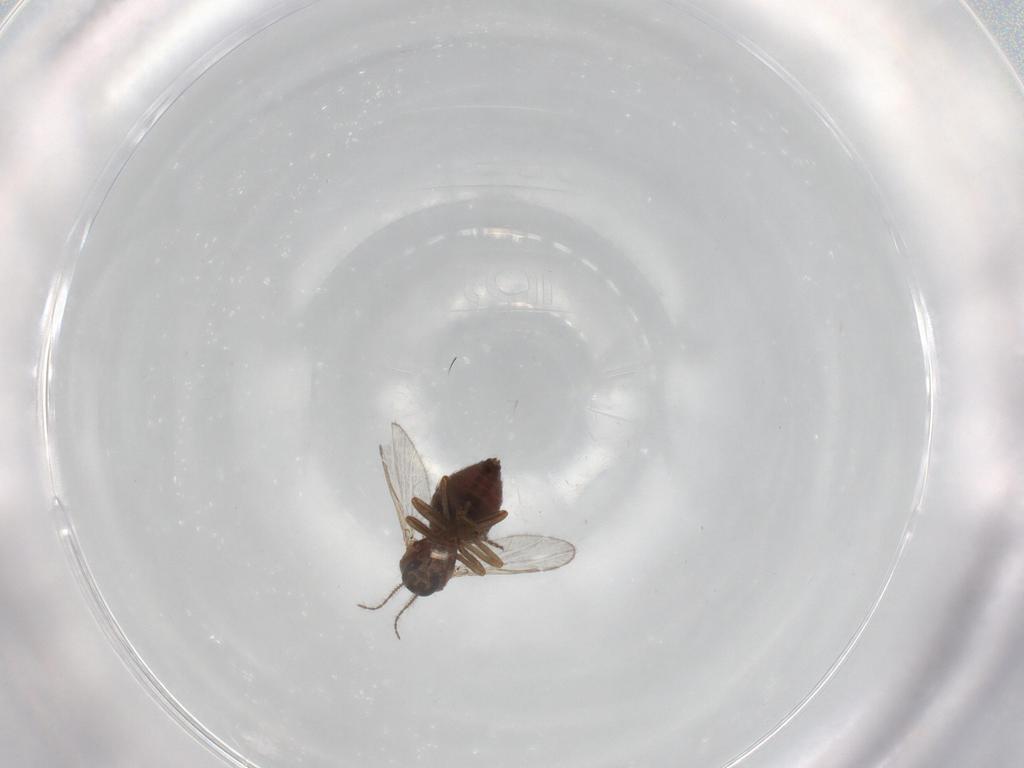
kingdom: Animalia
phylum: Arthropoda
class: Insecta
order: Diptera
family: Ceratopogonidae
